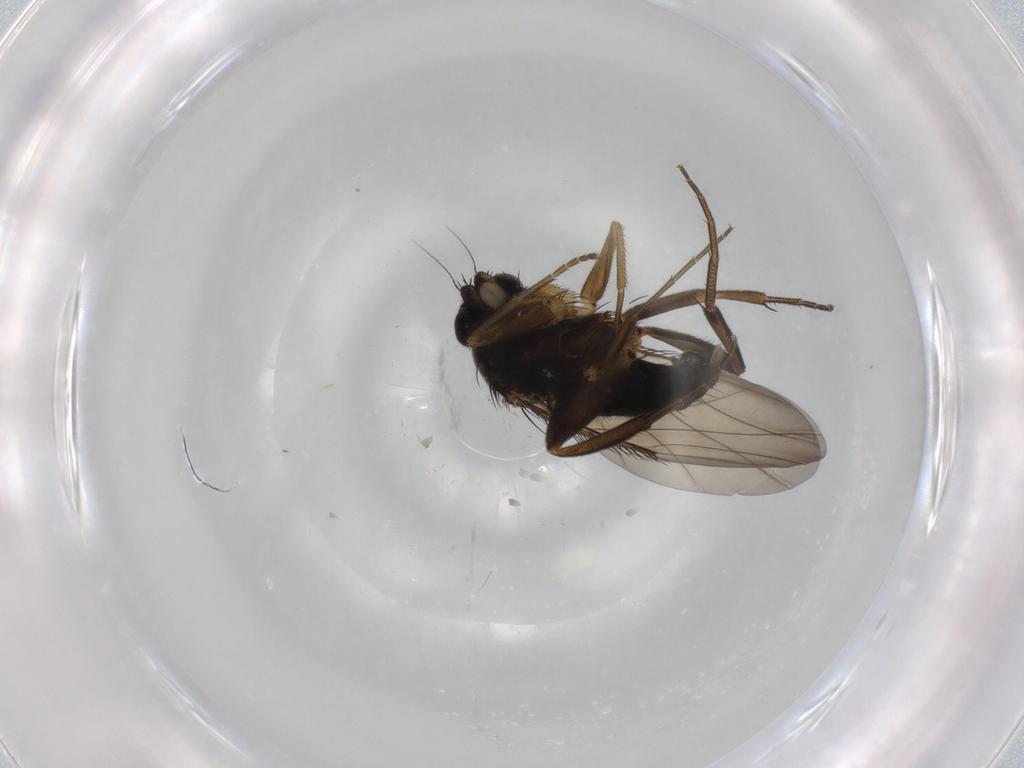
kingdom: Animalia
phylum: Arthropoda
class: Insecta
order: Diptera
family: Phoridae
